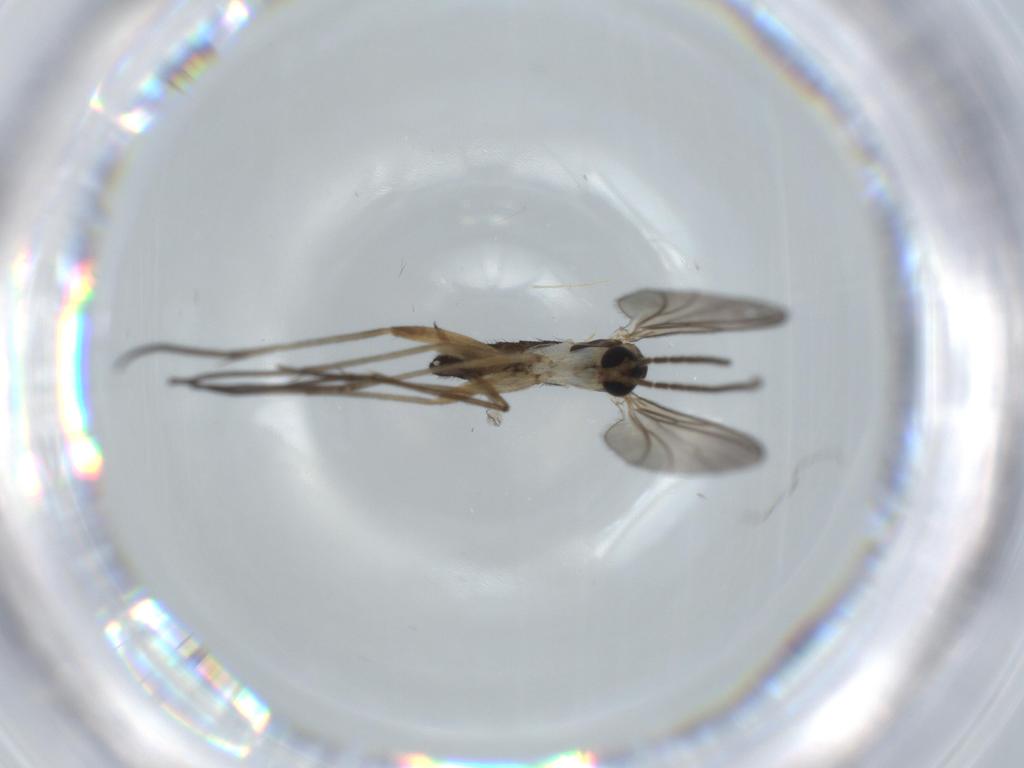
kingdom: Animalia
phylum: Arthropoda
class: Insecta
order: Diptera
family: Sciaridae
